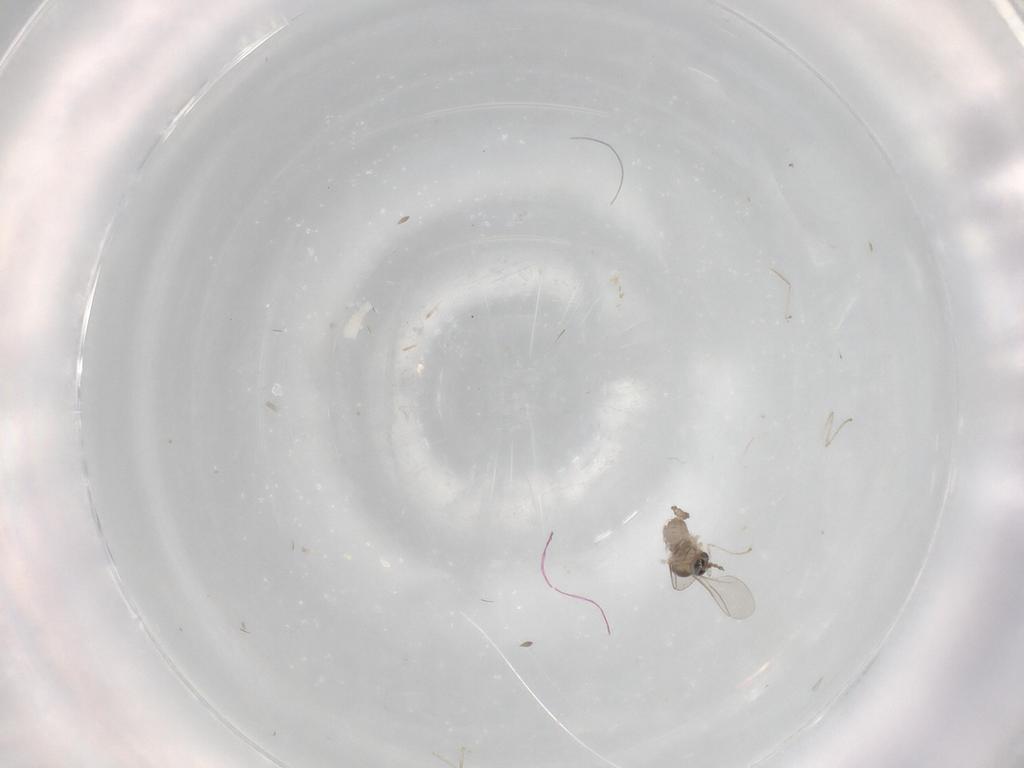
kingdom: Animalia
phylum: Arthropoda
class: Insecta
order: Diptera
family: Cecidomyiidae
